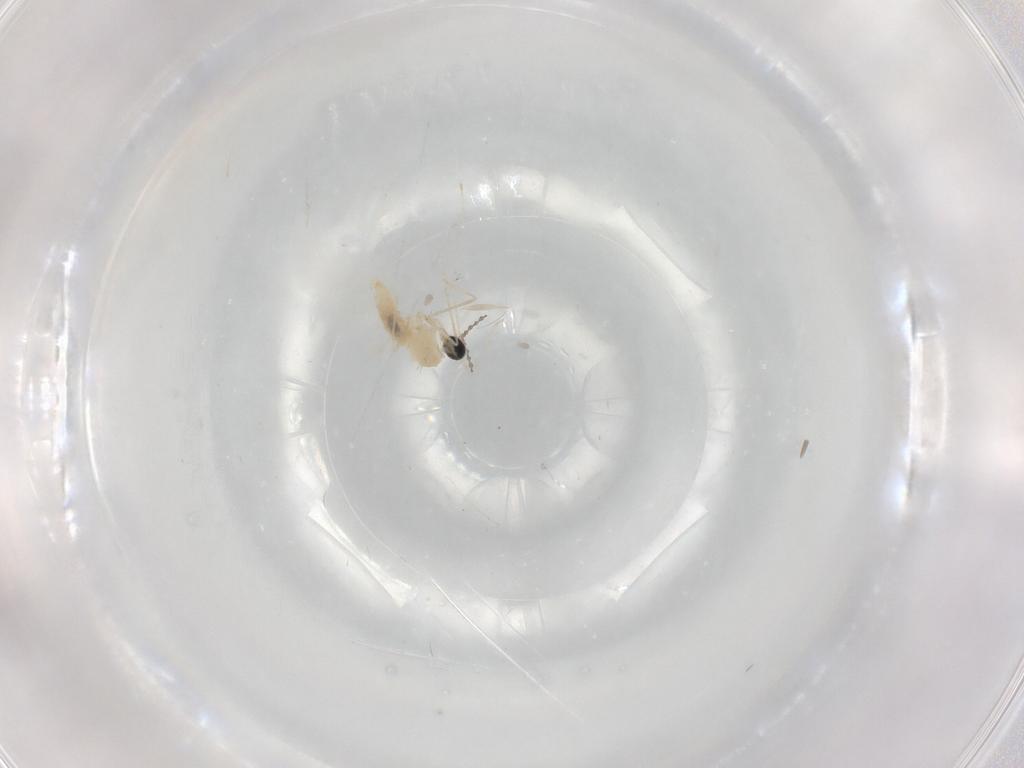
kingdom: Animalia
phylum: Arthropoda
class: Insecta
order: Diptera
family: Cecidomyiidae
